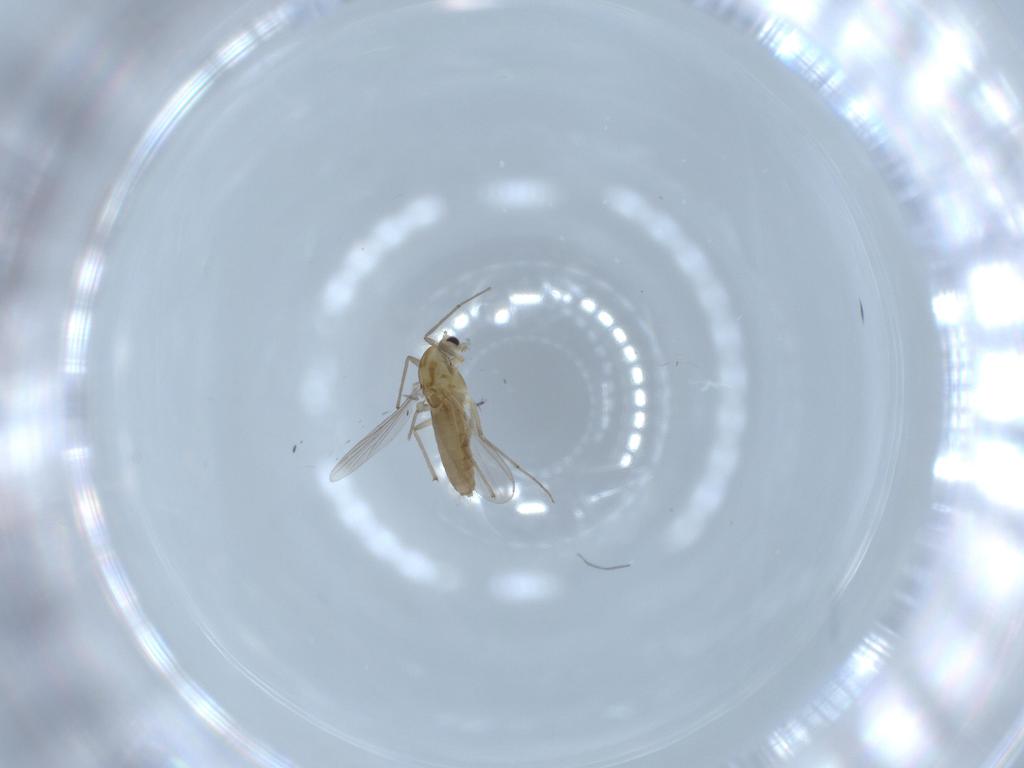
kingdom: Animalia
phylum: Arthropoda
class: Insecta
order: Diptera
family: Chironomidae
